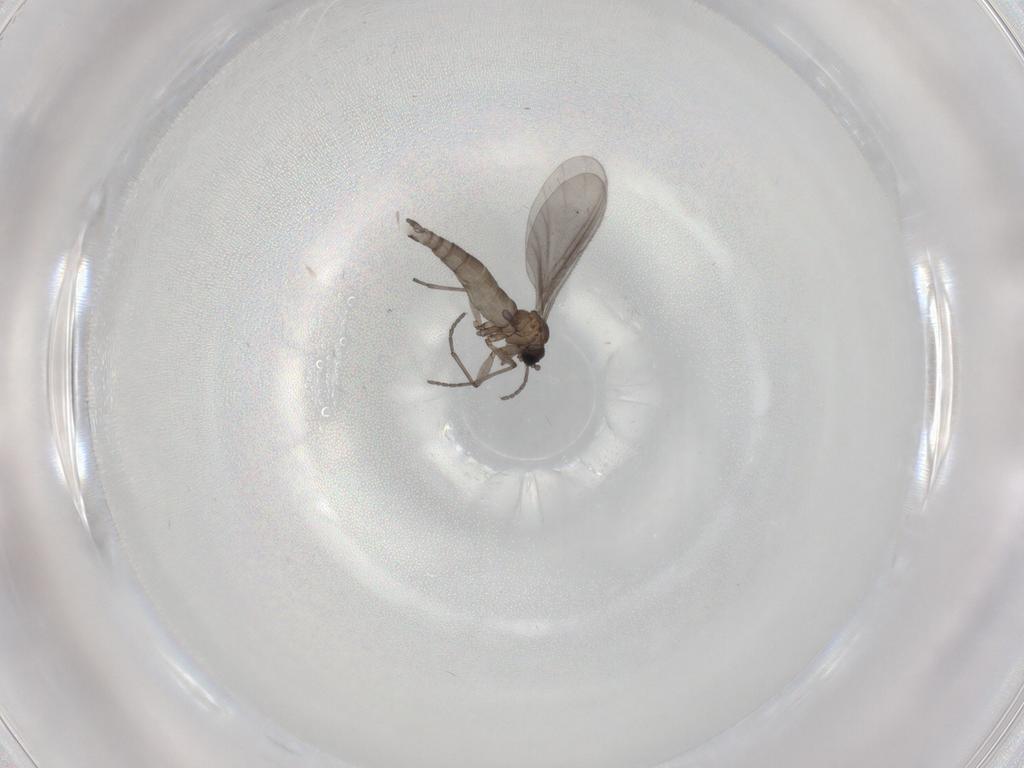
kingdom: Animalia
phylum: Arthropoda
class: Insecta
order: Diptera
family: Sciaridae
